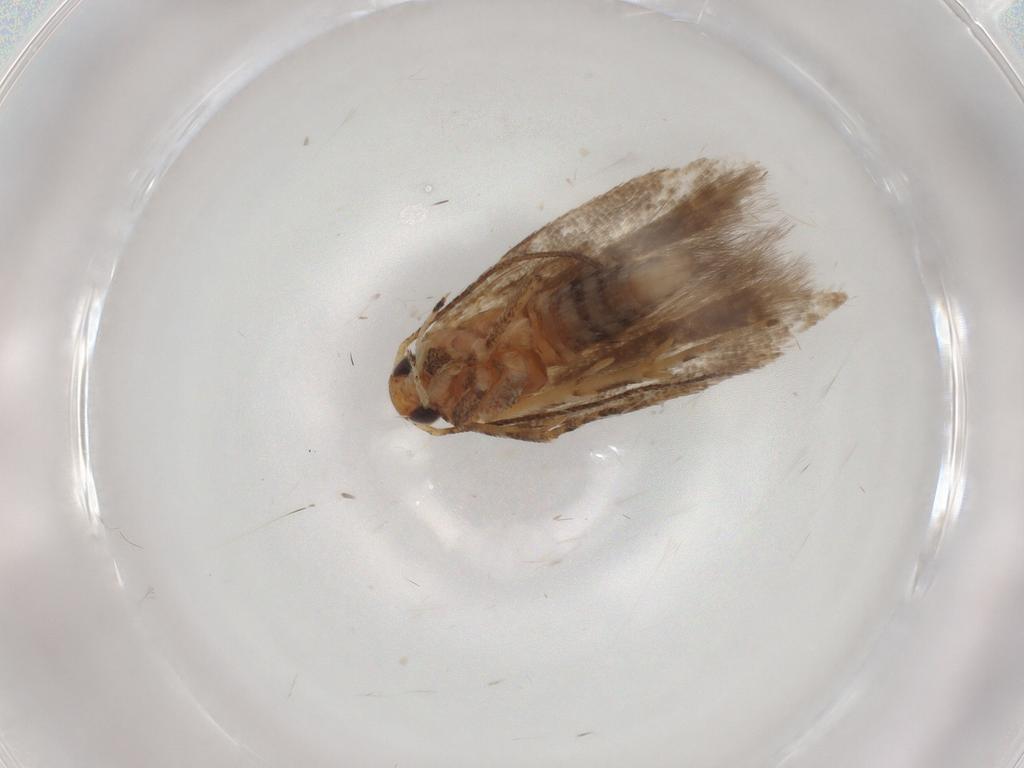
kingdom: Animalia
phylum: Arthropoda
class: Insecta
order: Lepidoptera
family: Gelechiidae
